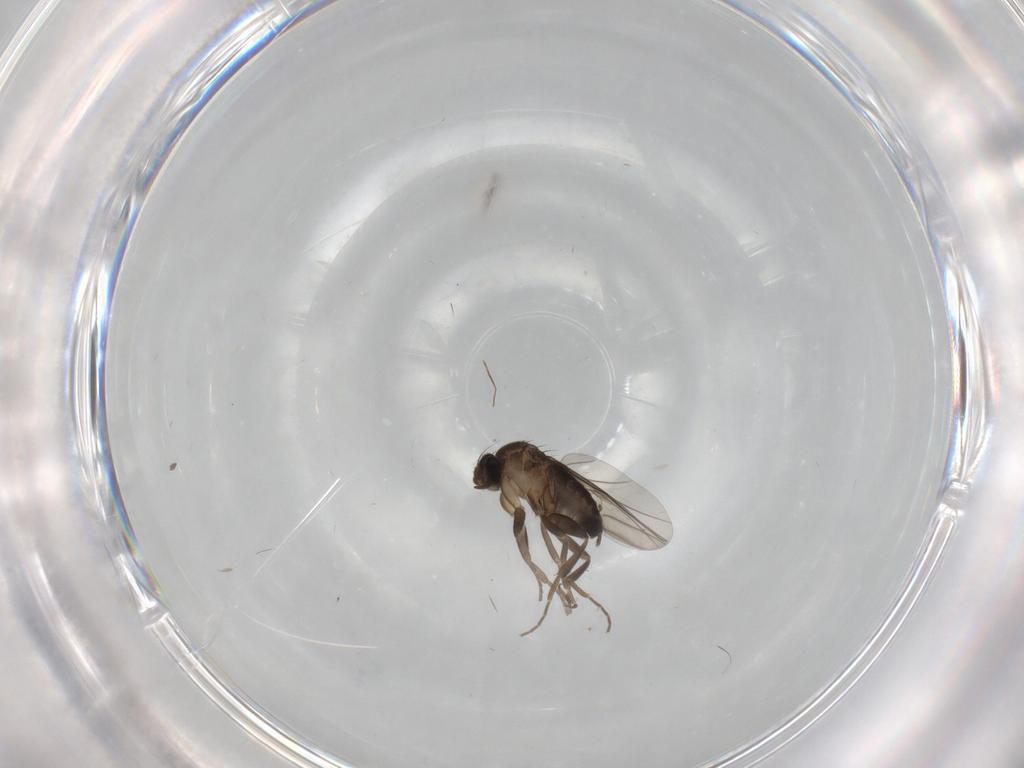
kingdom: Animalia
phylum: Arthropoda
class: Insecta
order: Diptera
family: Phoridae
